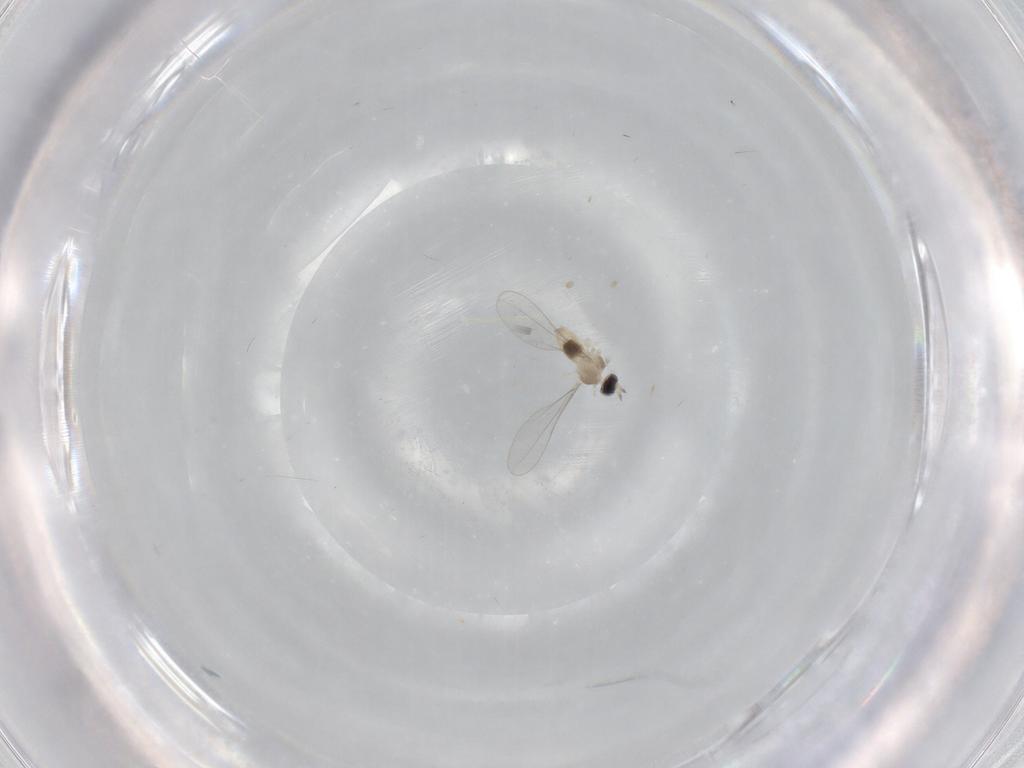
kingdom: Animalia
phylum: Arthropoda
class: Insecta
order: Diptera
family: Cecidomyiidae
